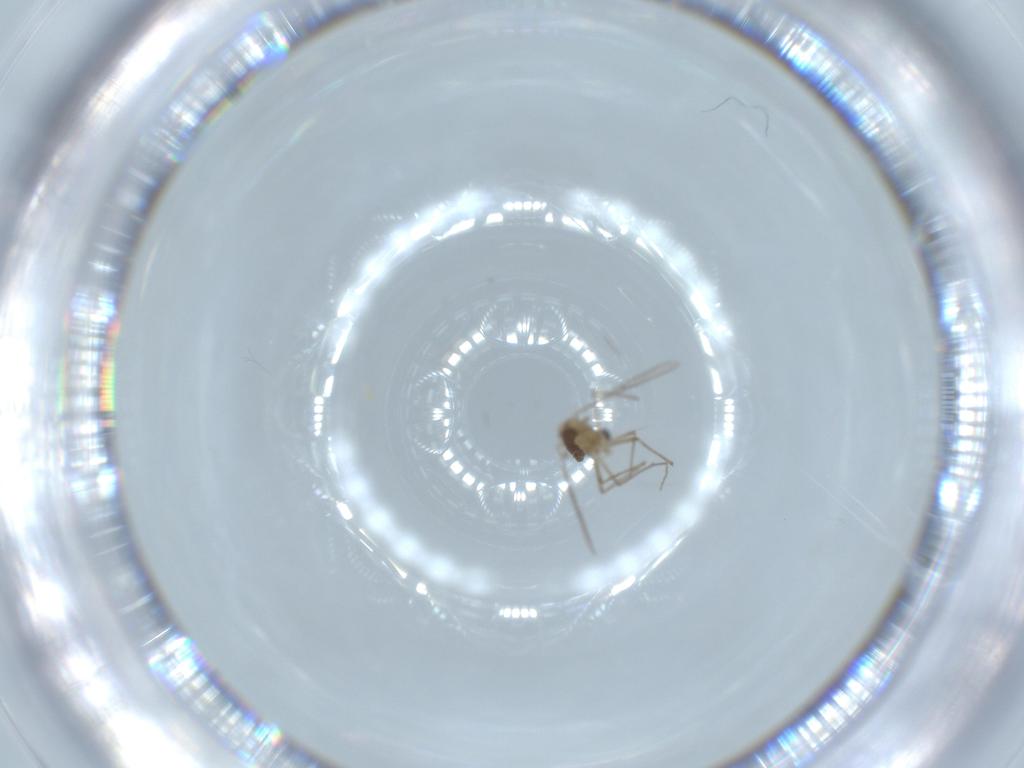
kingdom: Animalia
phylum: Arthropoda
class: Insecta
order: Diptera
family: Chironomidae
